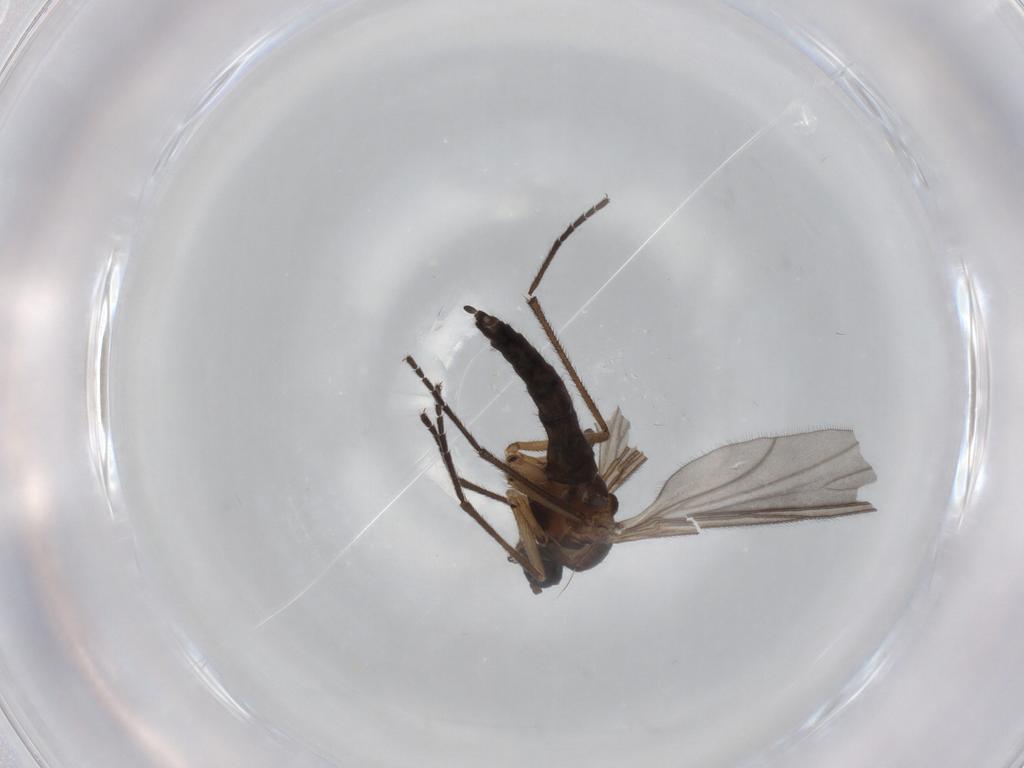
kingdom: Animalia
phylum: Arthropoda
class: Insecta
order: Diptera
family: Sciaridae
